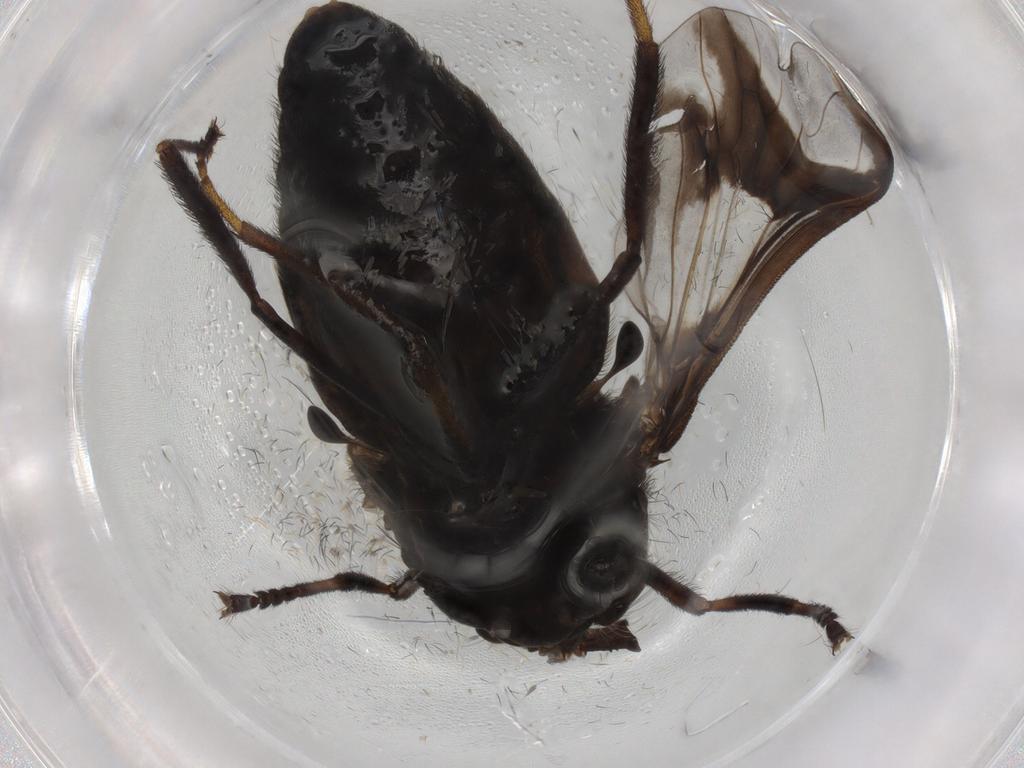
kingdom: Animalia
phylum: Arthropoda
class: Insecta
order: Diptera
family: Tabanidae
